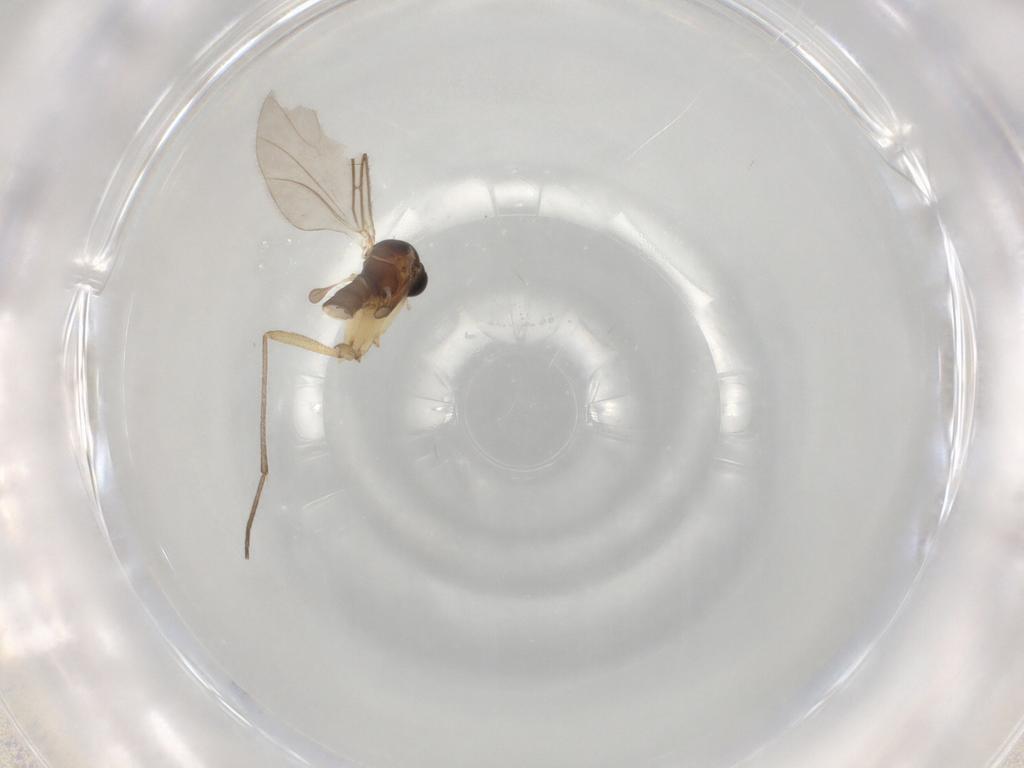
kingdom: Animalia
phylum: Arthropoda
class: Insecta
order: Diptera
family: Sciaridae
